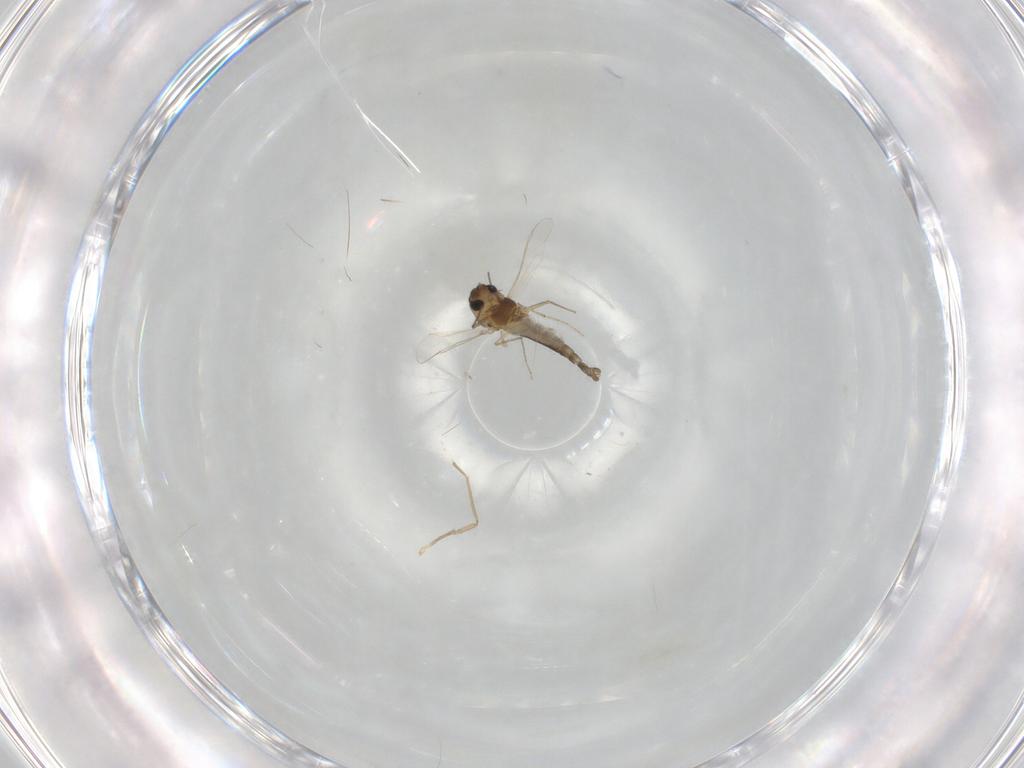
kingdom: Animalia
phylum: Arthropoda
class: Insecta
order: Diptera
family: Chironomidae
